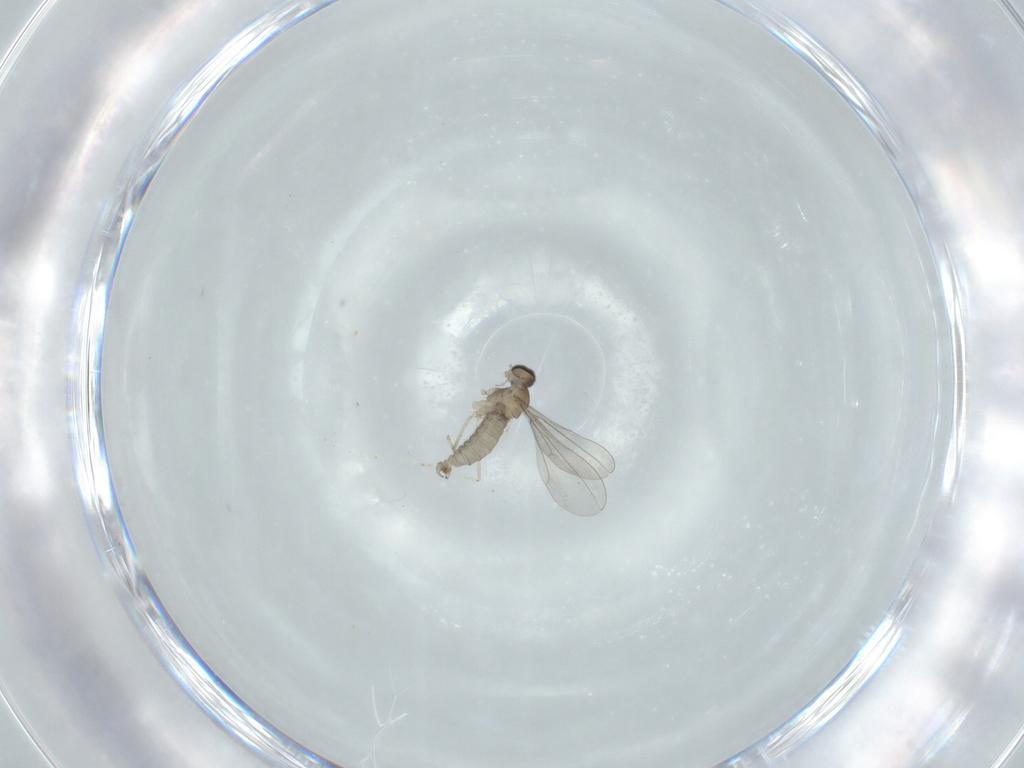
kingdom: Animalia
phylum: Arthropoda
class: Insecta
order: Diptera
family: Cecidomyiidae
